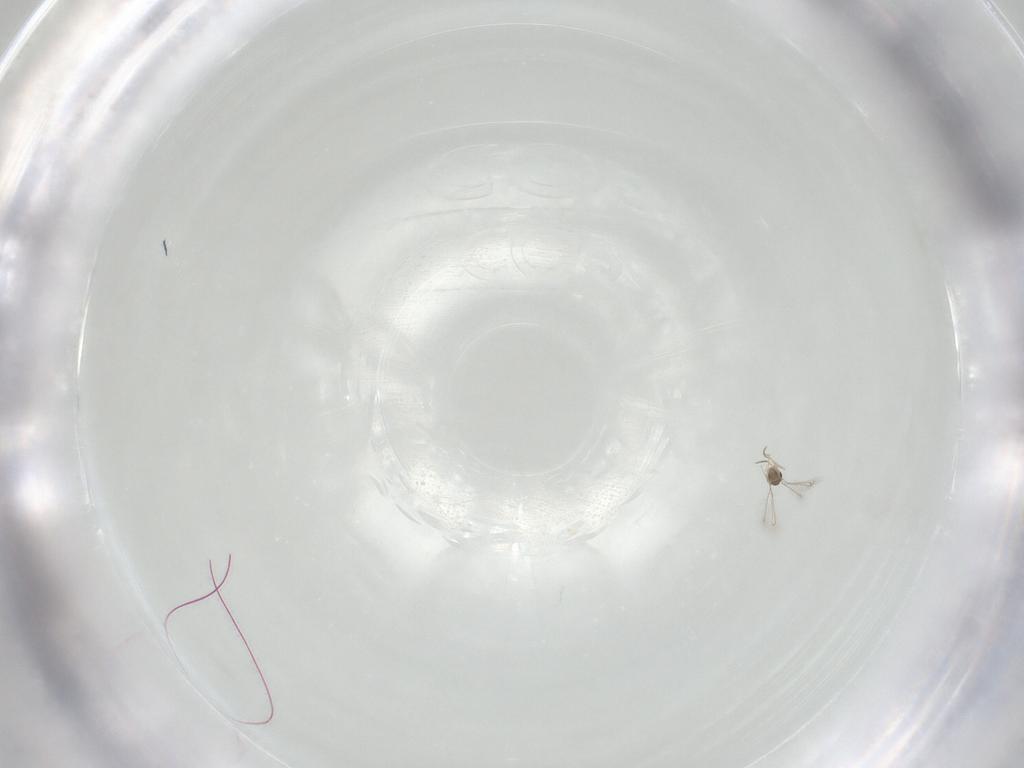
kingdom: Animalia
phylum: Arthropoda
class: Insecta
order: Hymenoptera
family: Mymaridae
